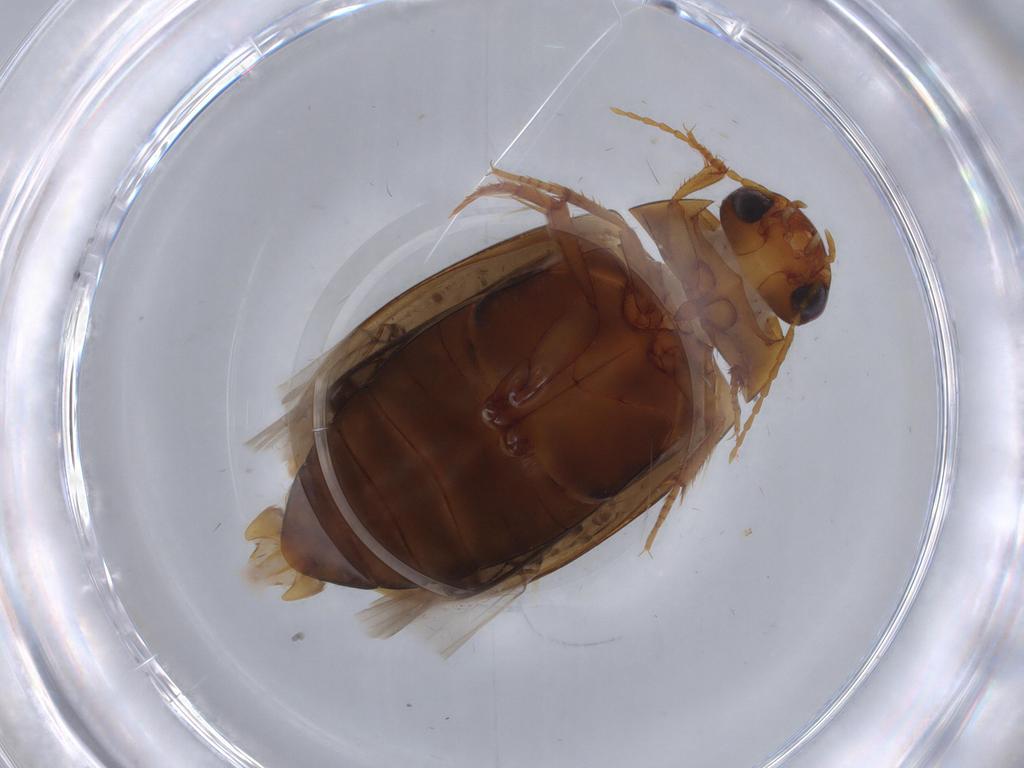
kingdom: Animalia
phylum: Arthropoda
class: Insecta
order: Coleoptera
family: Dytiscidae
